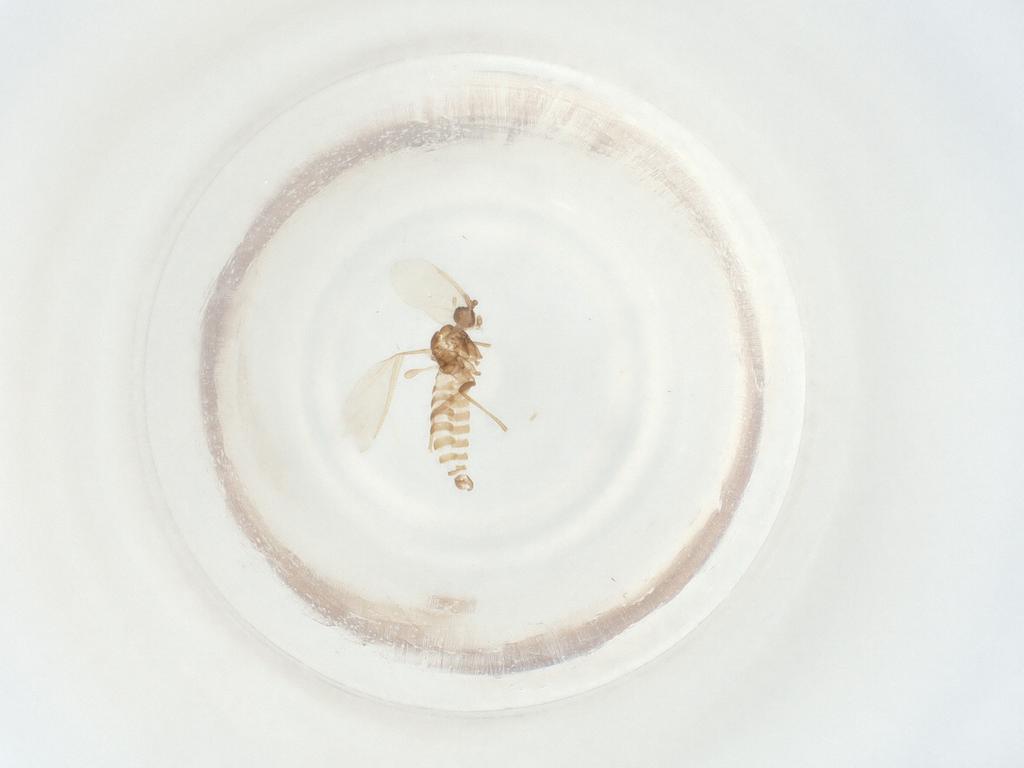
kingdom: Animalia
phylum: Arthropoda
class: Insecta
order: Diptera
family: Sciaridae
